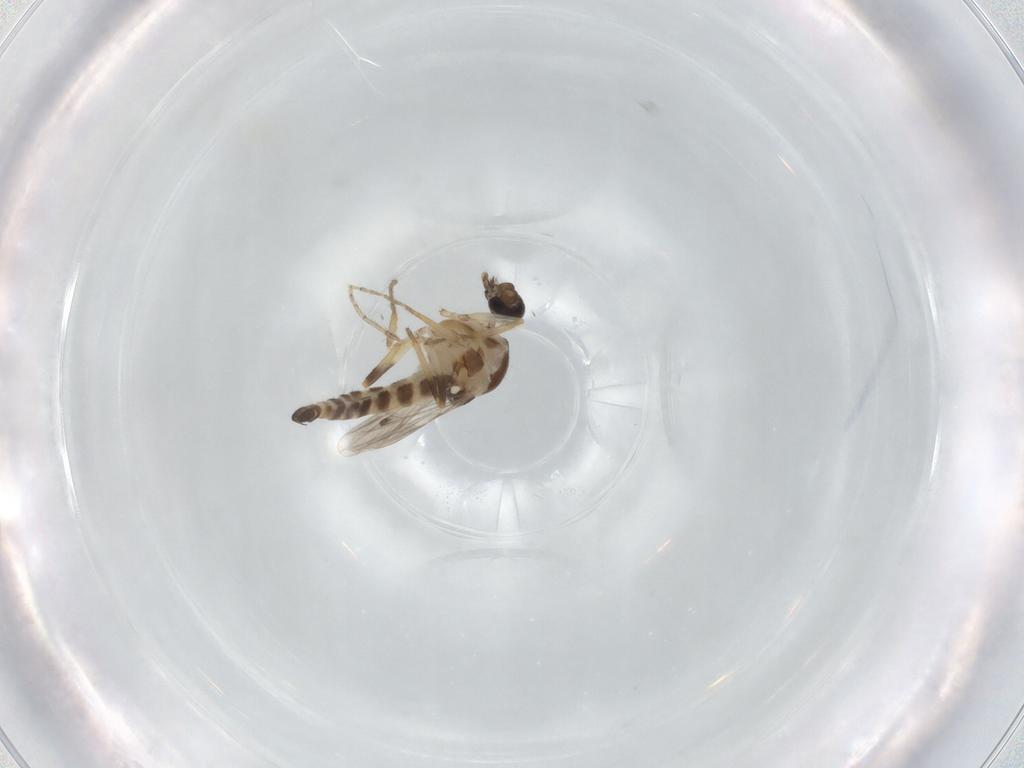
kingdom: Animalia
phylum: Arthropoda
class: Insecta
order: Diptera
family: Ceratopogonidae
